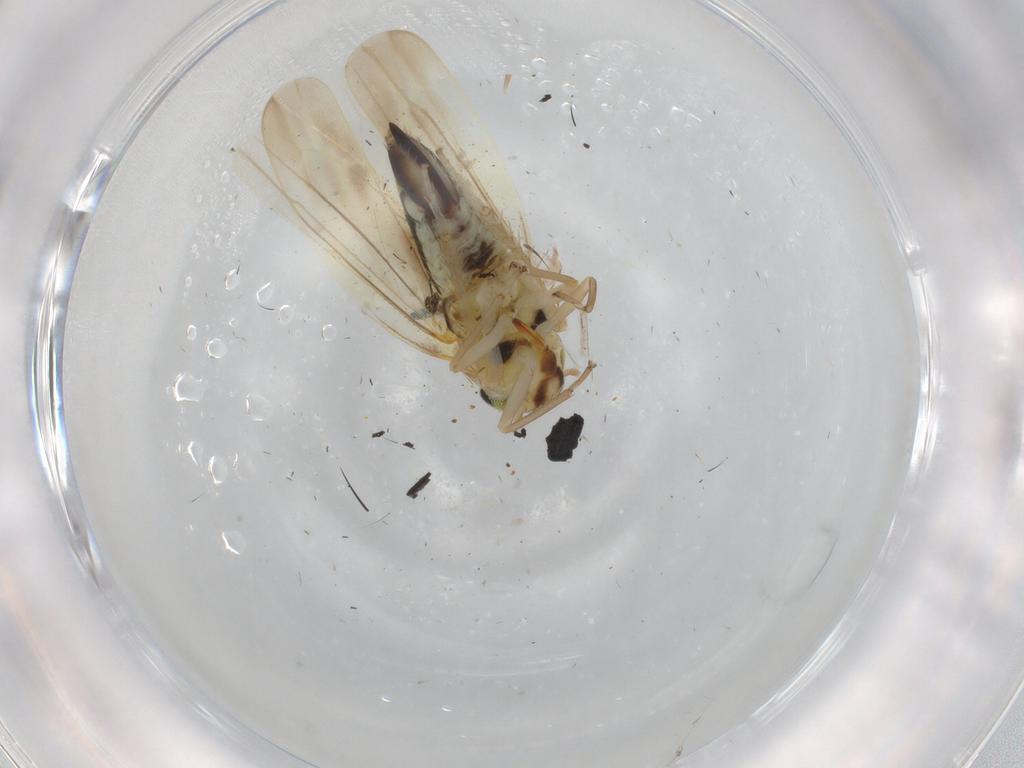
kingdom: Animalia
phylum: Arthropoda
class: Insecta
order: Hemiptera
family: Cicadellidae
